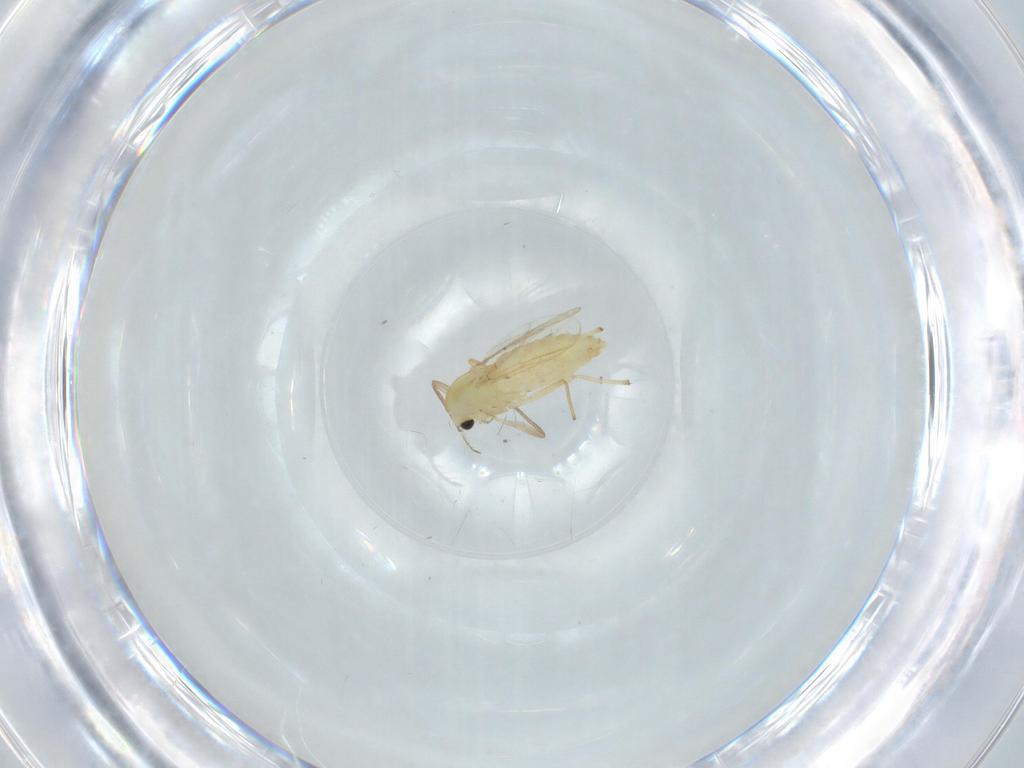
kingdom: Animalia
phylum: Arthropoda
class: Insecta
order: Diptera
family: Chironomidae
